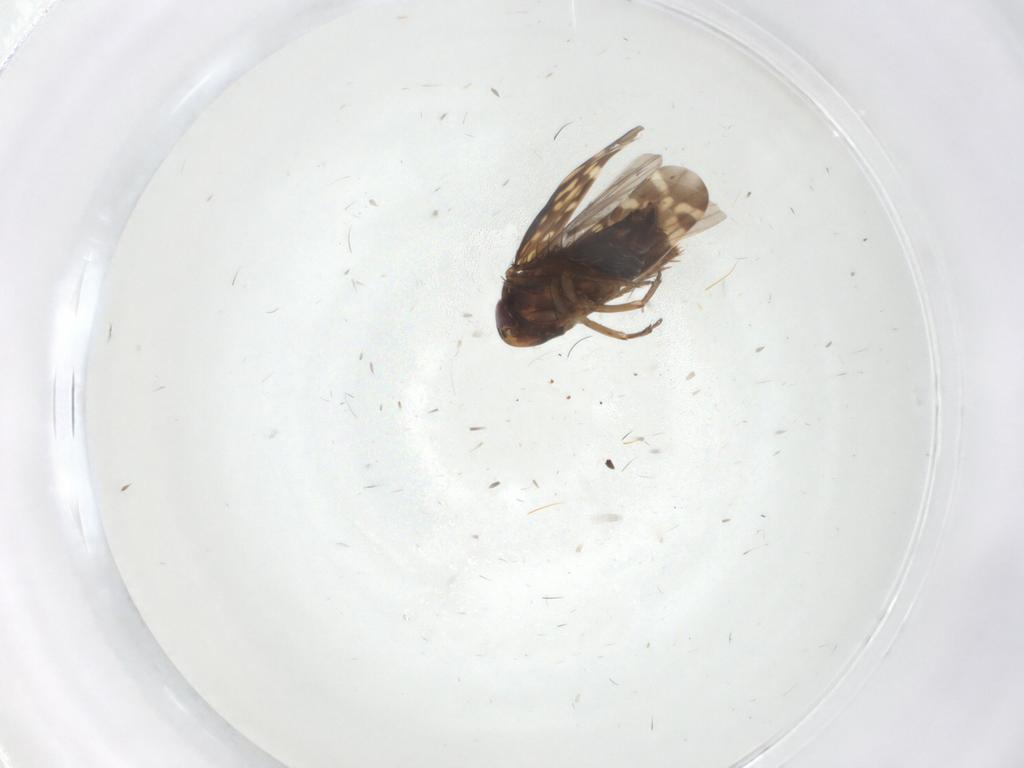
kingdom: Animalia
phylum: Arthropoda
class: Insecta
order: Hemiptera
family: Cicadellidae
